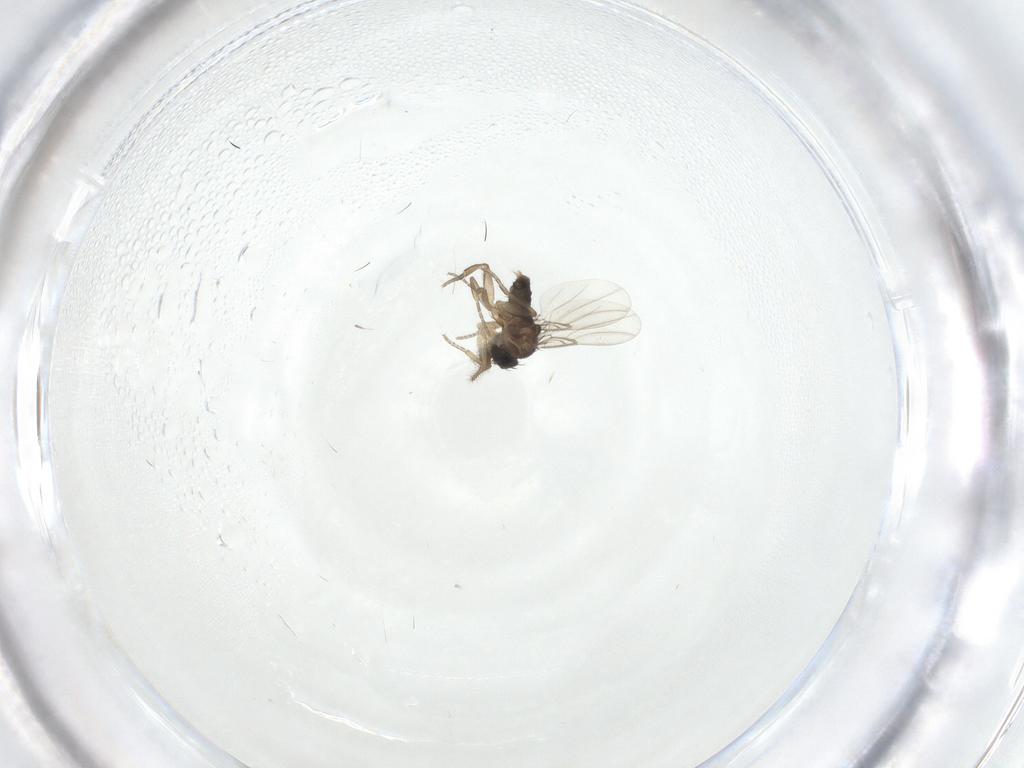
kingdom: Animalia
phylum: Arthropoda
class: Insecta
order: Diptera
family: Phoridae
